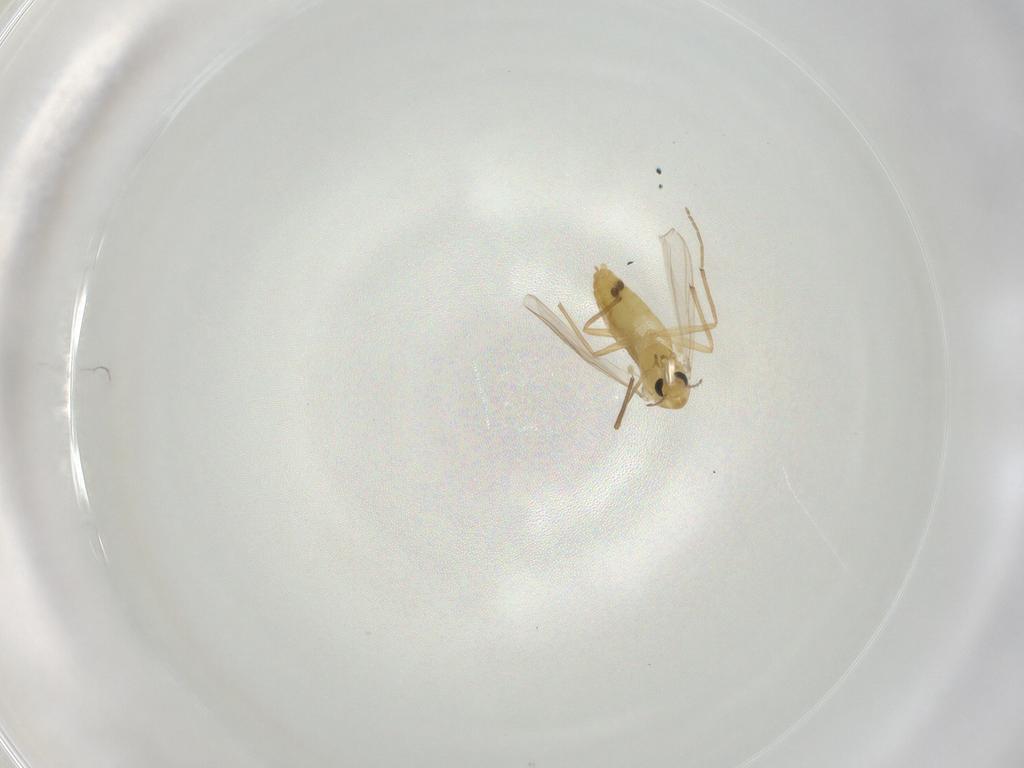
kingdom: Animalia
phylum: Arthropoda
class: Insecta
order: Diptera
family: Chironomidae
